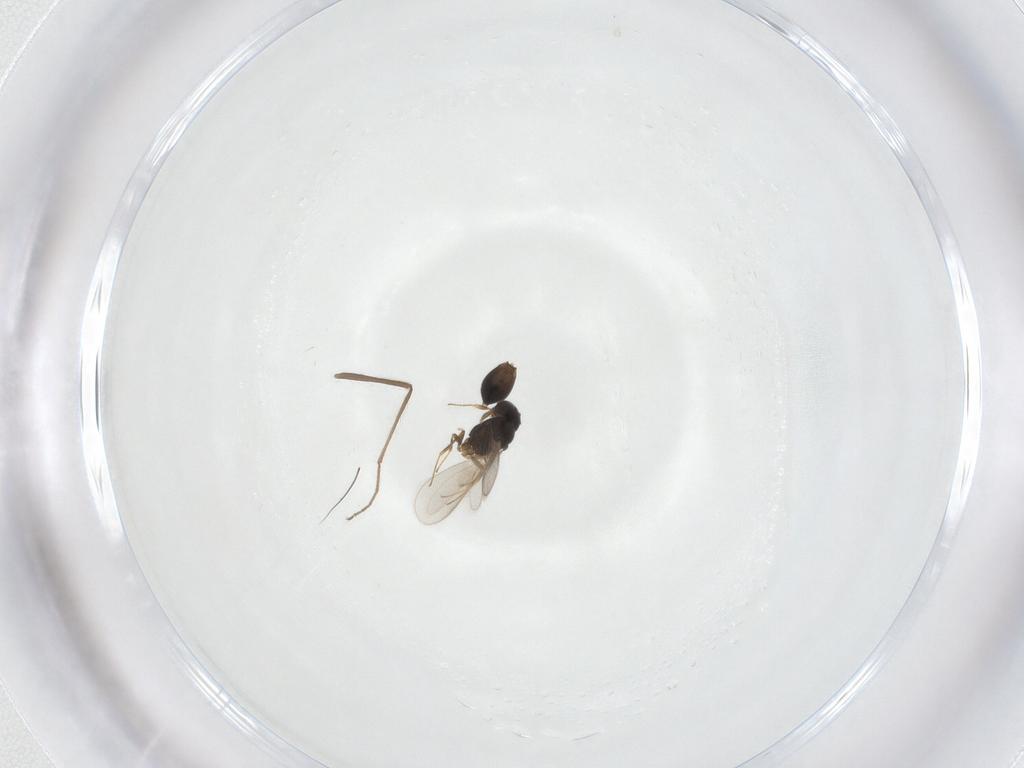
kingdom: Animalia
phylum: Arthropoda
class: Insecta
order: Hymenoptera
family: Scelionidae
